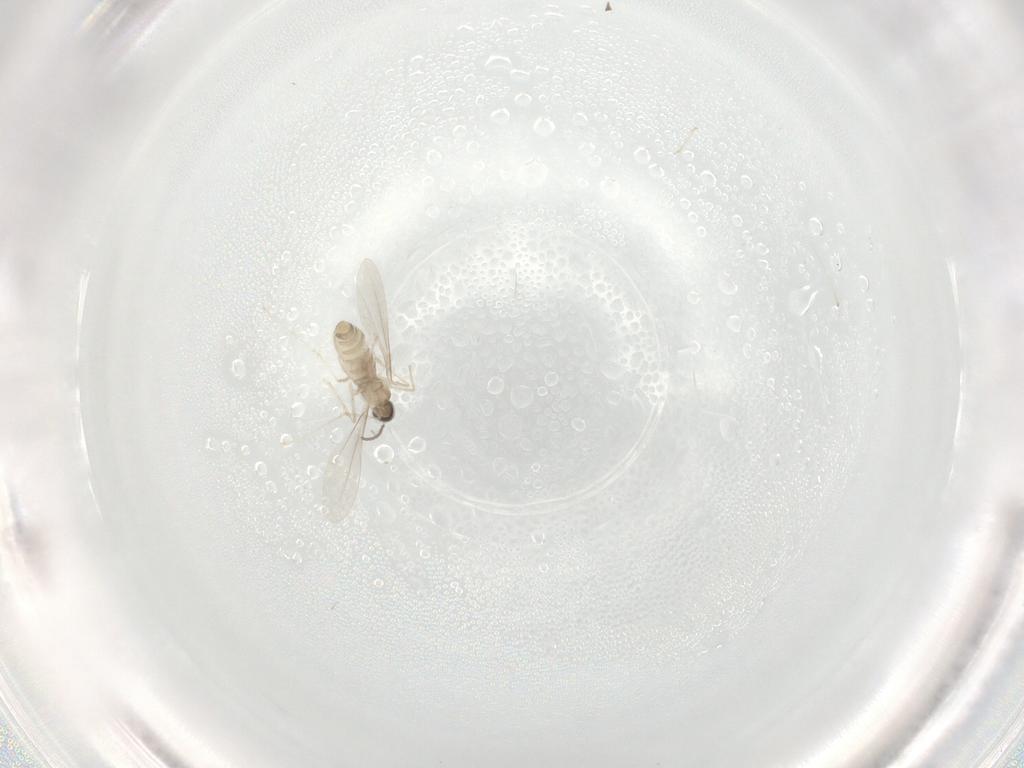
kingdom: Animalia
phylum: Arthropoda
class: Insecta
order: Diptera
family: Cecidomyiidae
